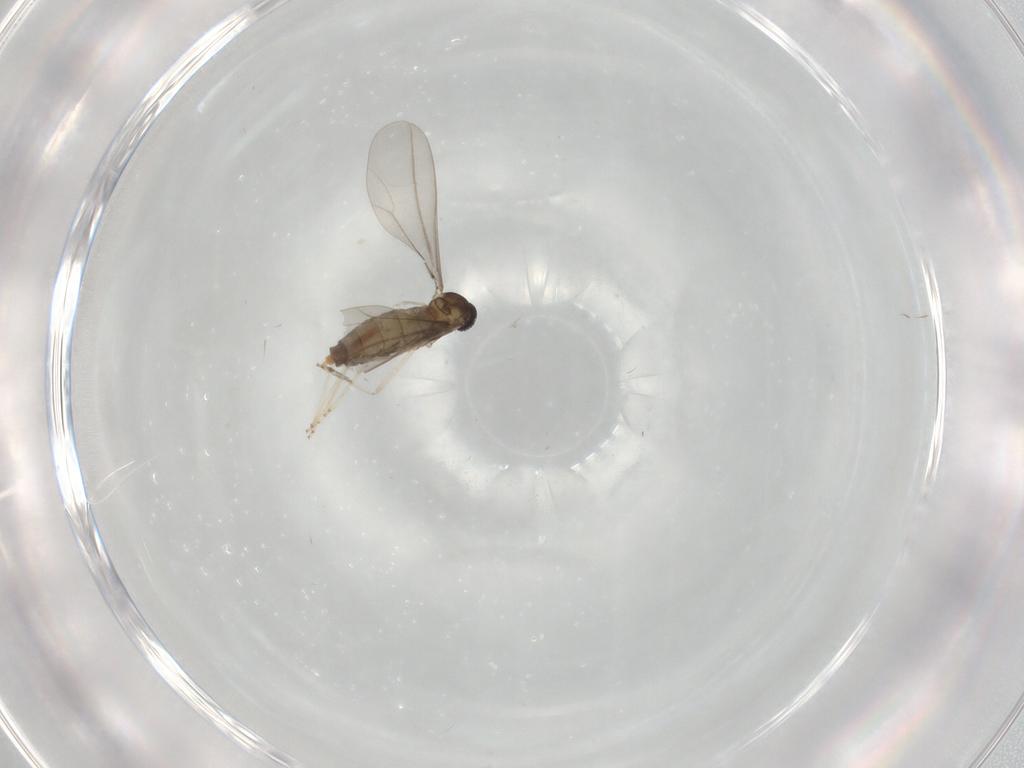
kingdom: Animalia
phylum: Arthropoda
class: Insecta
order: Diptera
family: Cecidomyiidae
